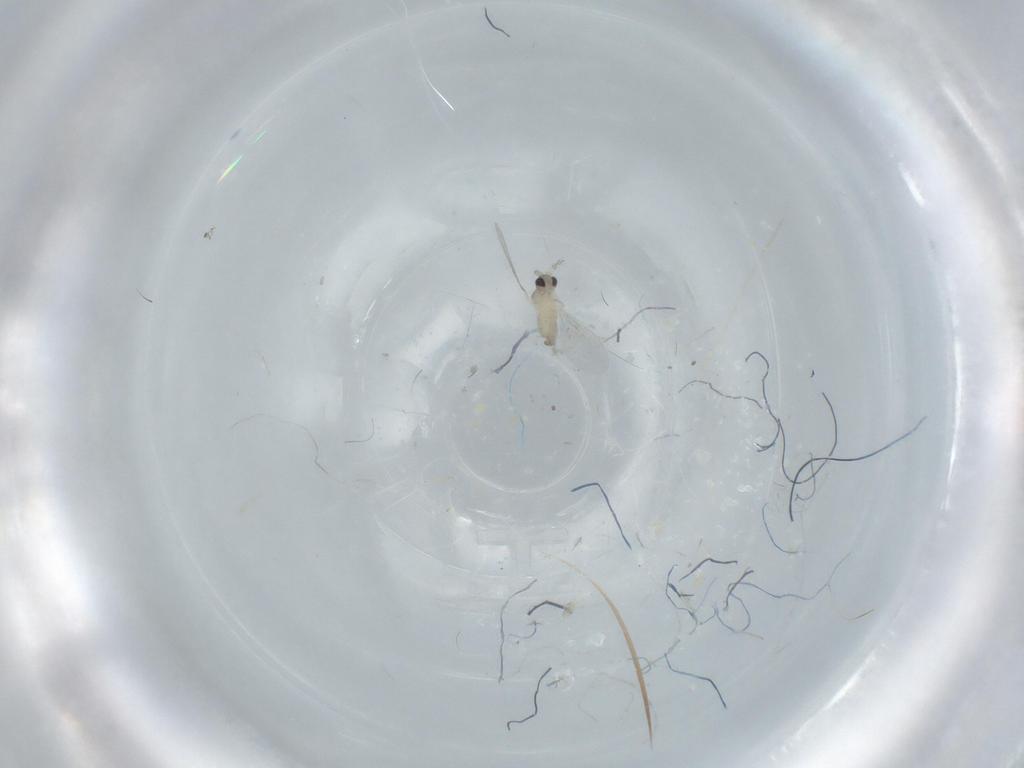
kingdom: Animalia
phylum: Arthropoda
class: Insecta
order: Diptera
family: Cecidomyiidae
